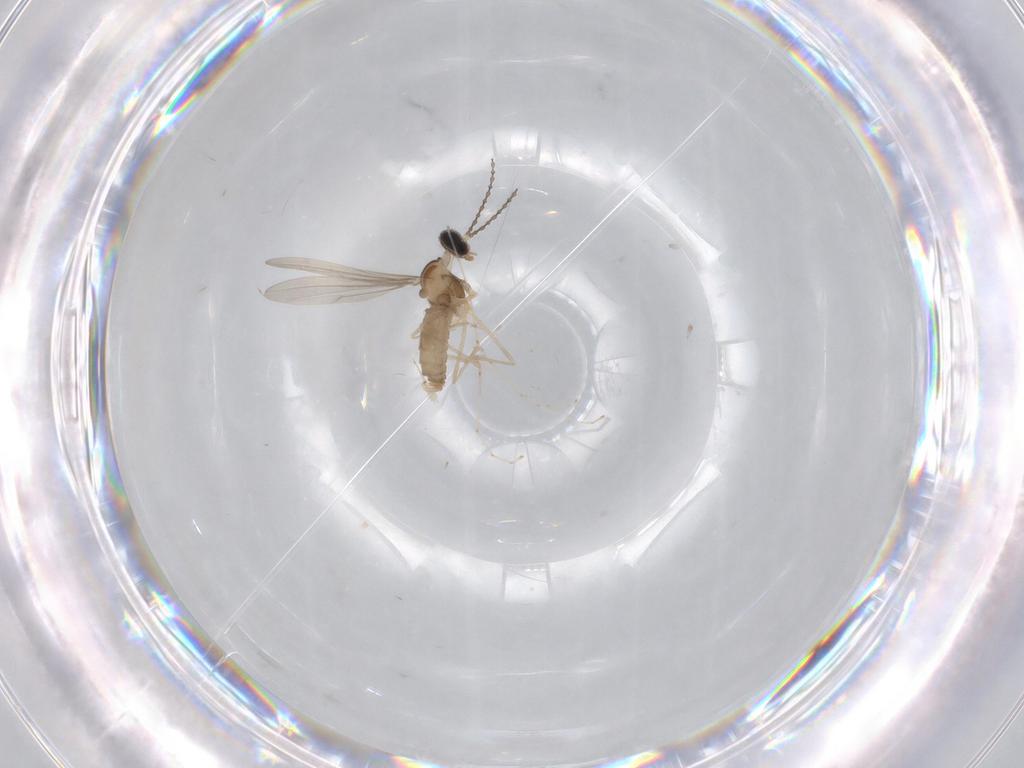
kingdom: Animalia
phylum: Arthropoda
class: Insecta
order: Diptera
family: Cecidomyiidae
